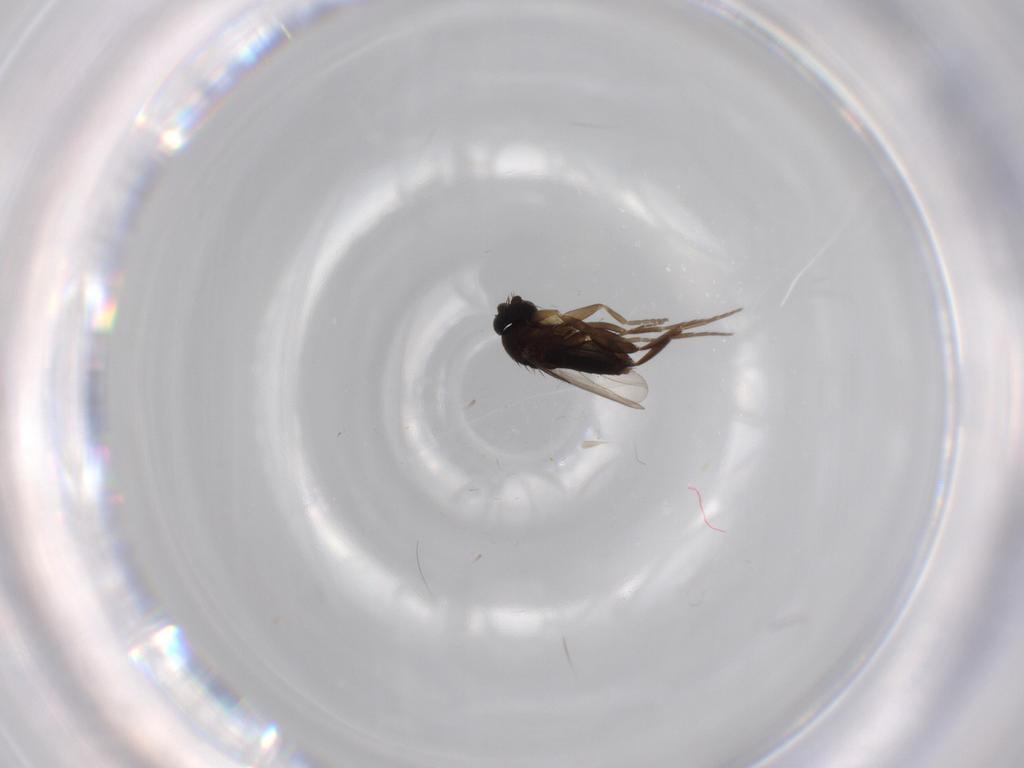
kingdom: Animalia
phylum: Arthropoda
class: Insecta
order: Diptera
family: Phoridae
